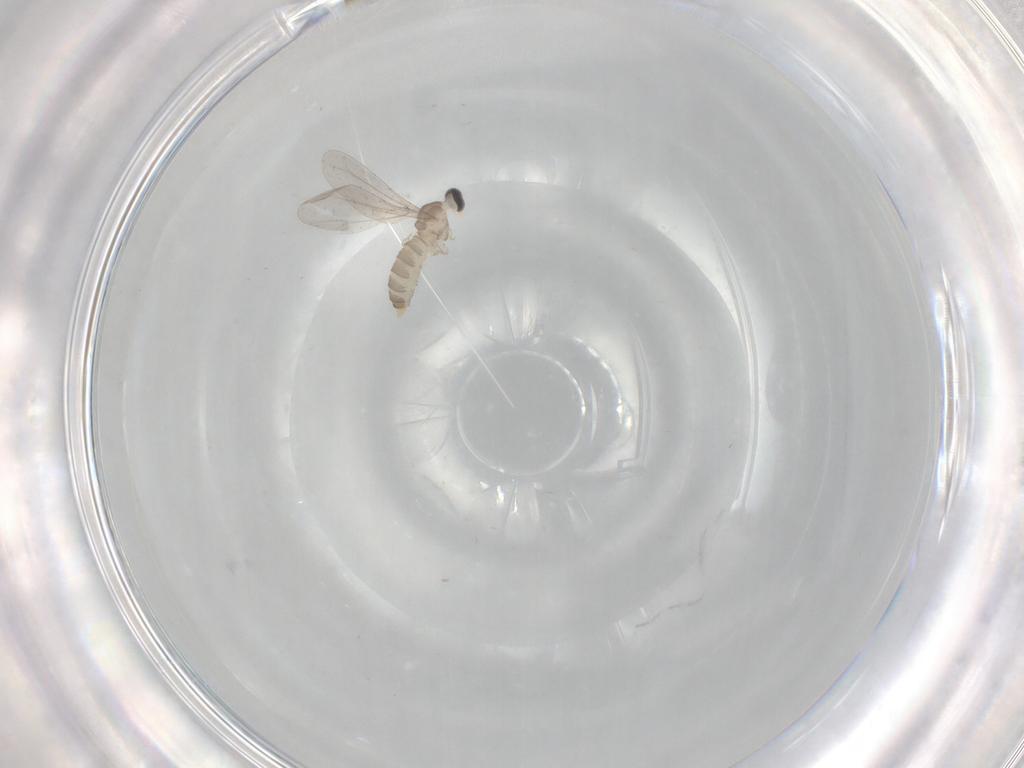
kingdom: Animalia
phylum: Arthropoda
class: Insecta
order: Diptera
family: Cecidomyiidae
